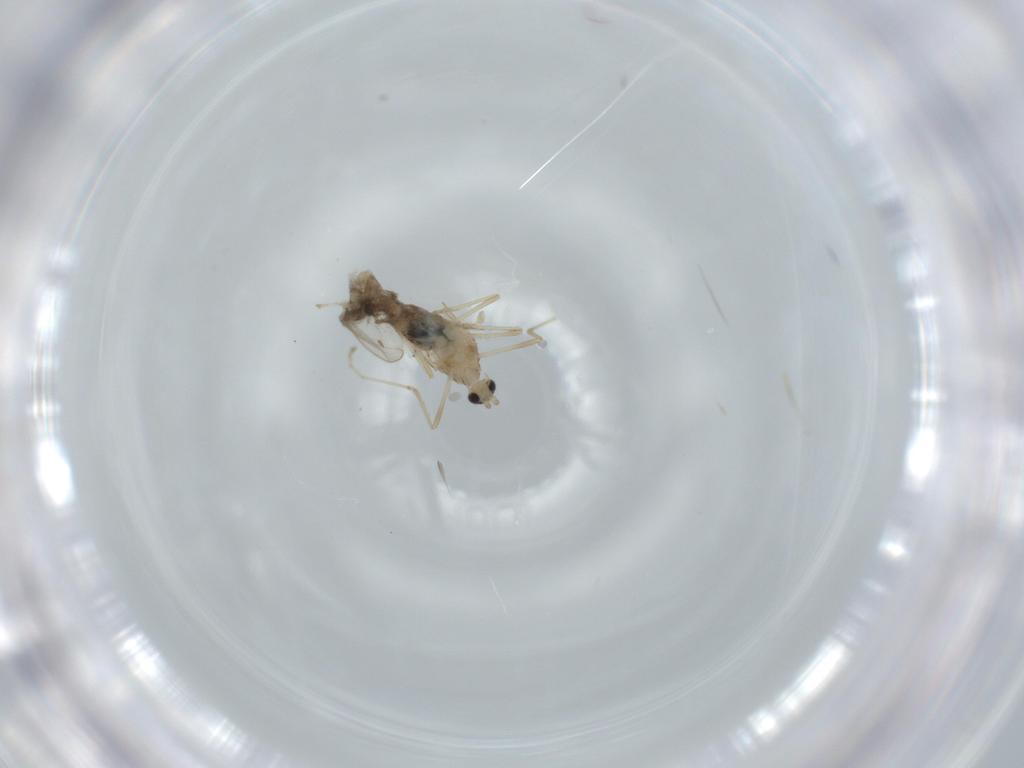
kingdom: Animalia
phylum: Arthropoda
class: Insecta
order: Diptera
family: Cecidomyiidae
